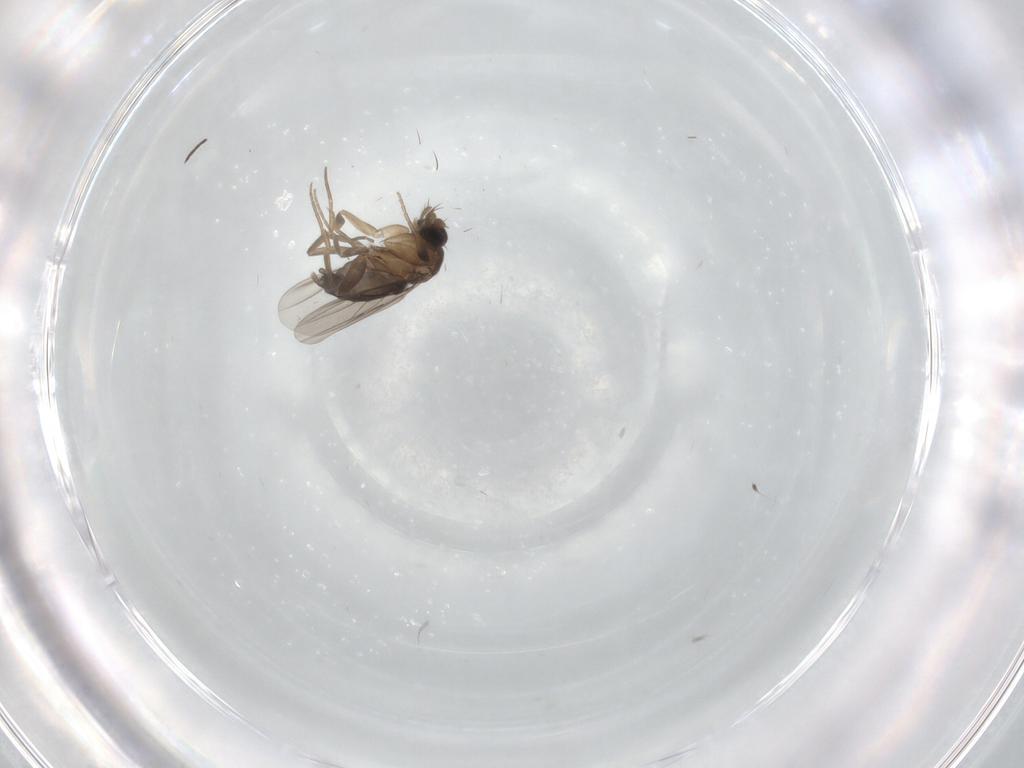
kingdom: Animalia
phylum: Arthropoda
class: Insecta
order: Diptera
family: Phoridae
